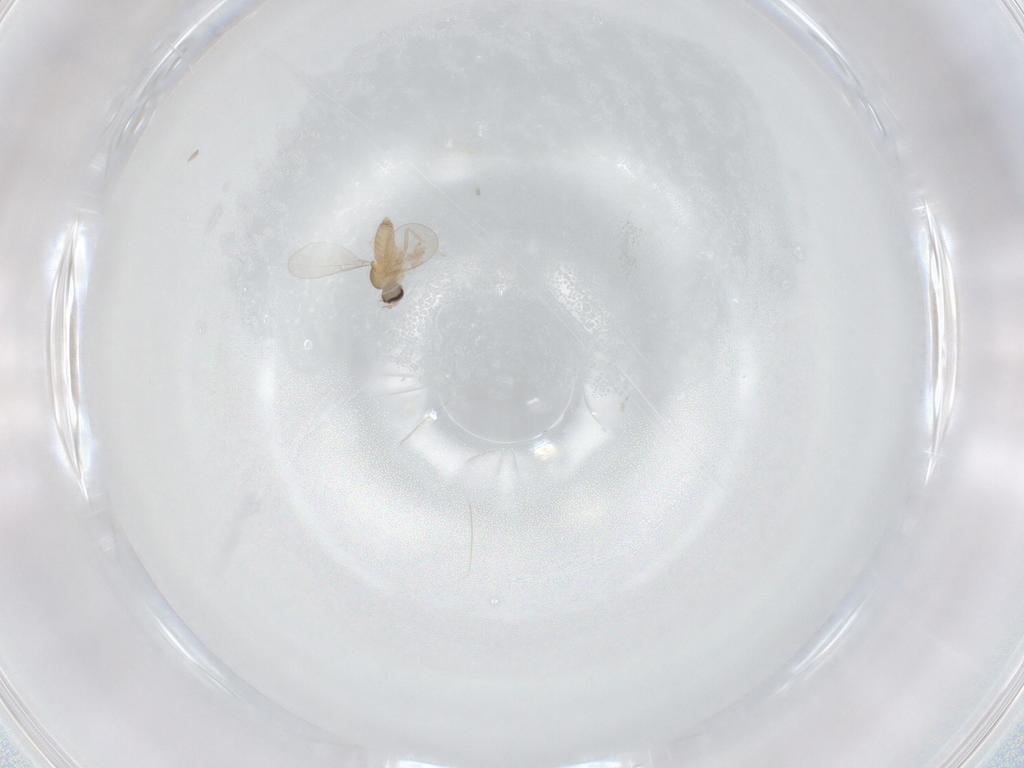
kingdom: Animalia
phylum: Arthropoda
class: Insecta
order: Diptera
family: Cecidomyiidae
